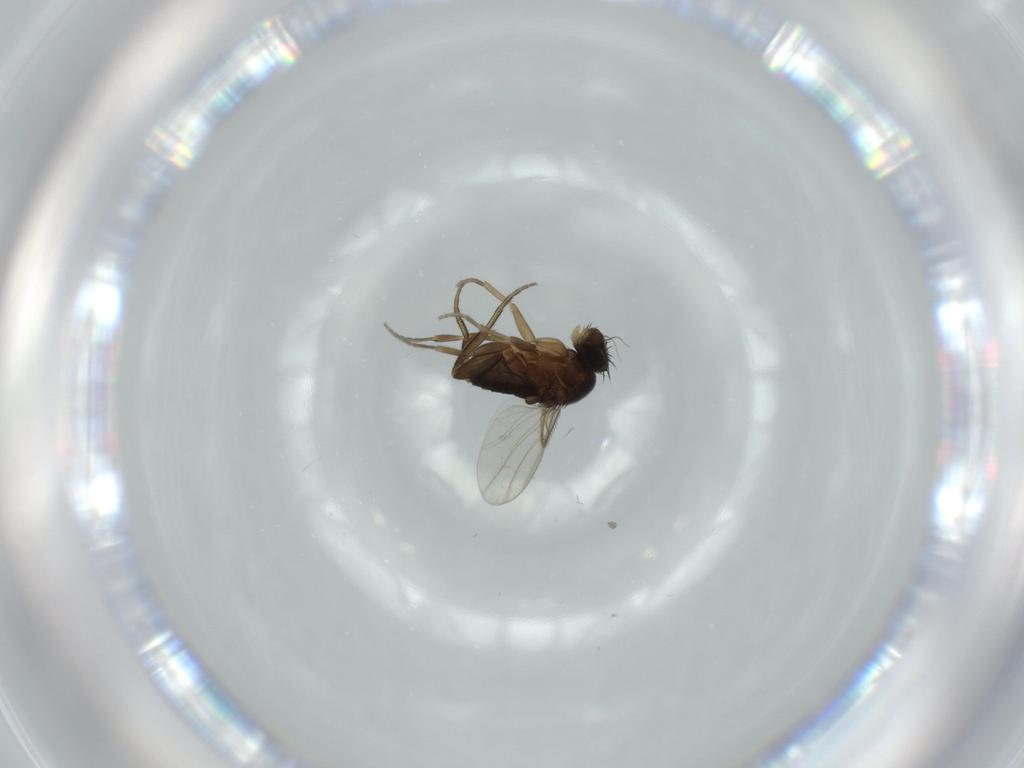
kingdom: Animalia
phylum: Arthropoda
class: Insecta
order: Diptera
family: Phoridae
